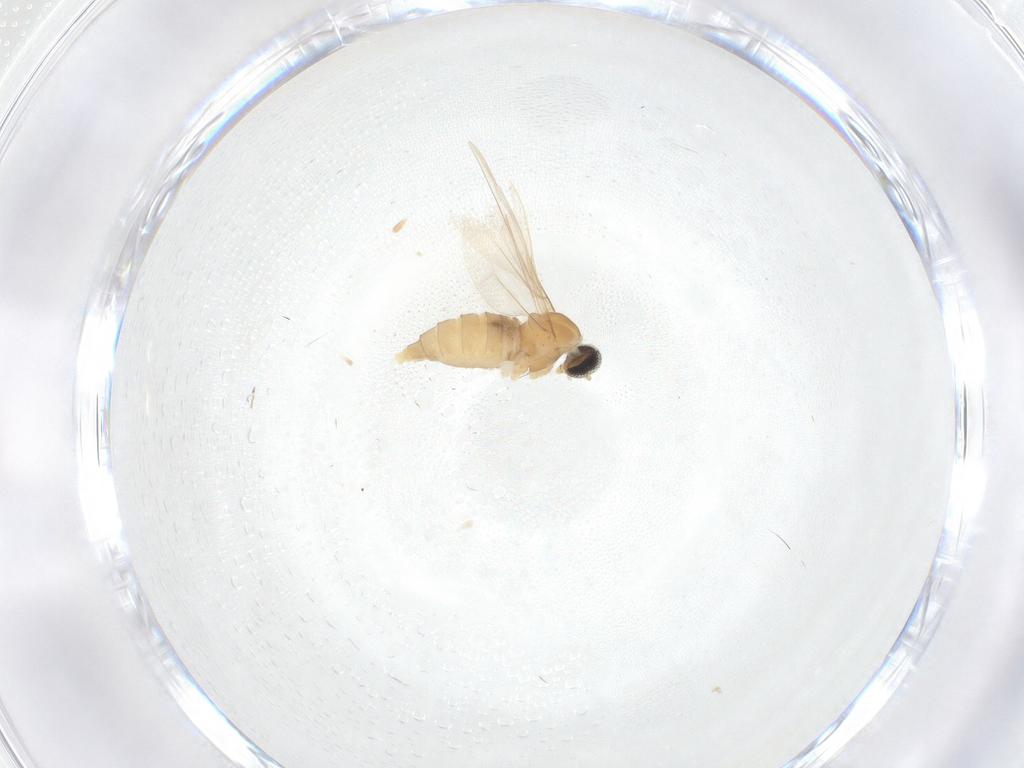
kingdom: Animalia
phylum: Arthropoda
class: Insecta
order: Diptera
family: Cecidomyiidae
